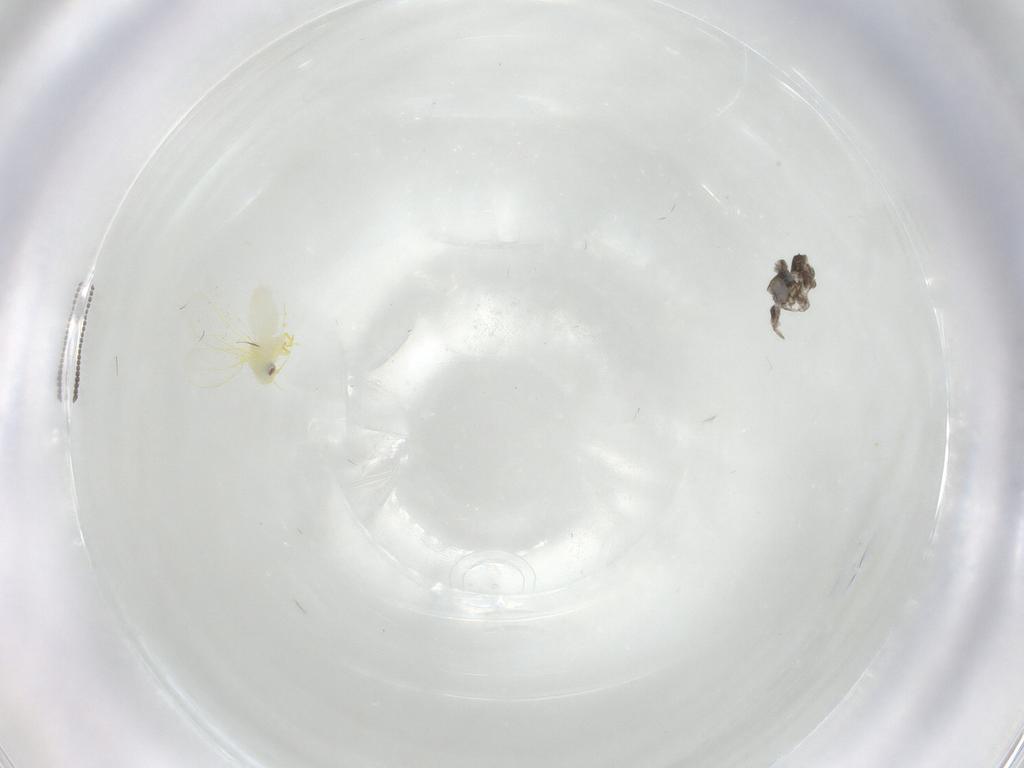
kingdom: Animalia
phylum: Arthropoda
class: Insecta
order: Diptera
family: Cecidomyiidae
